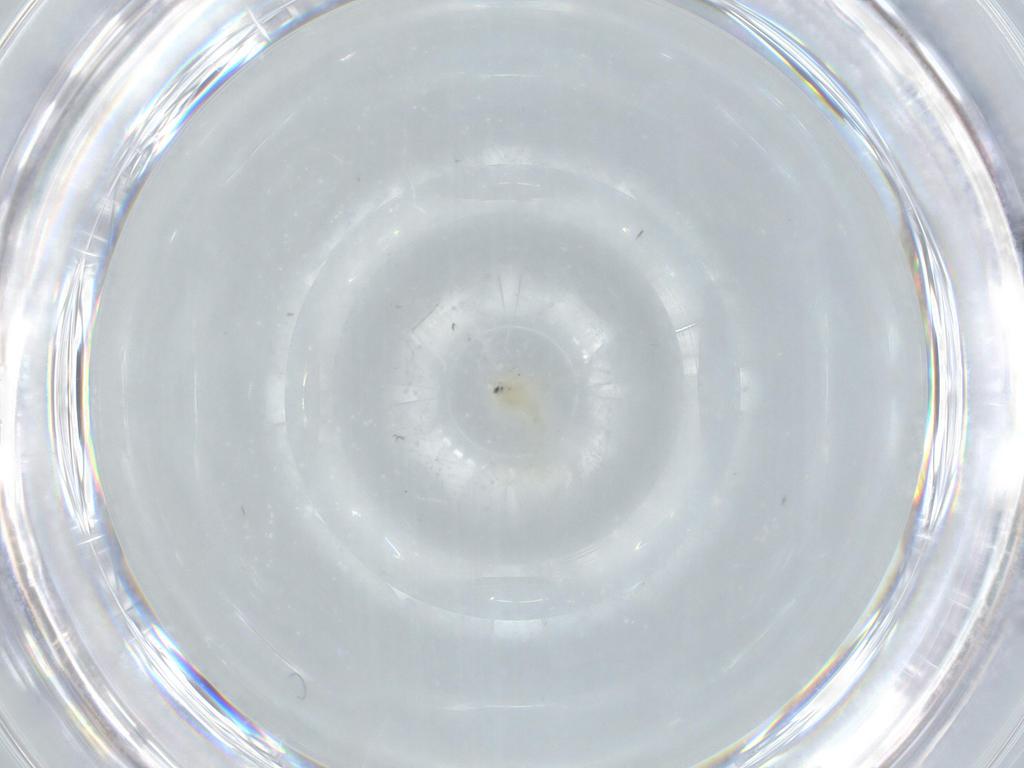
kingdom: Animalia
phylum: Arthropoda
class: Insecta
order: Hemiptera
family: Aleyrodidae
